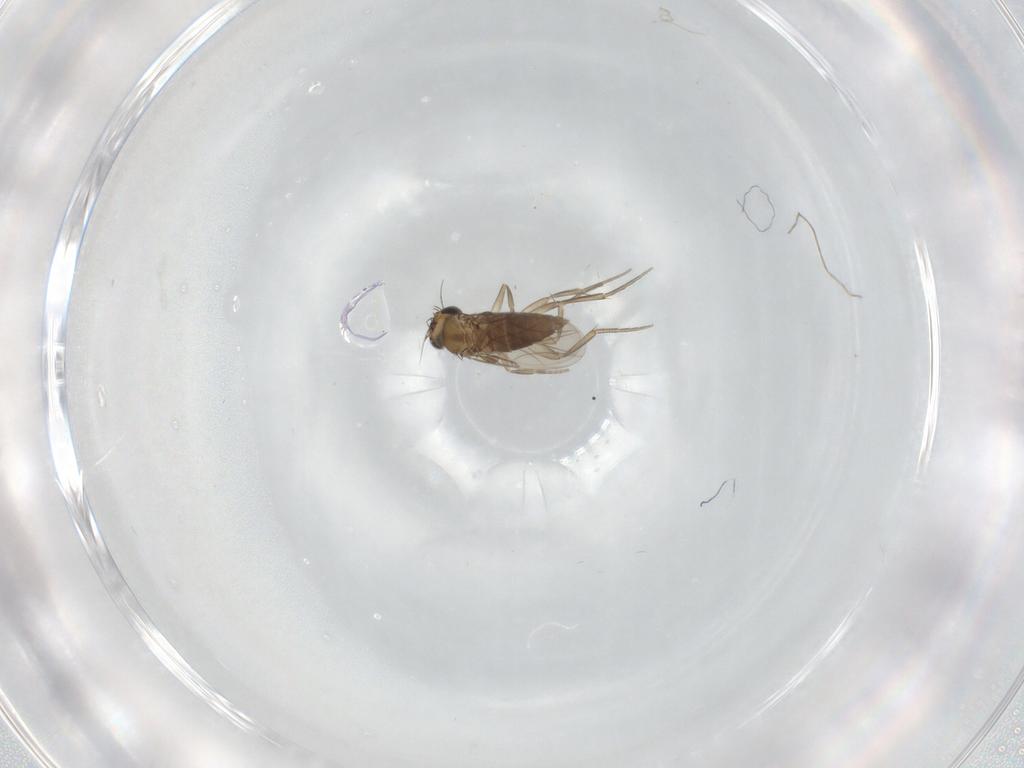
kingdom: Animalia
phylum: Arthropoda
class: Insecta
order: Diptera
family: Phoridae
